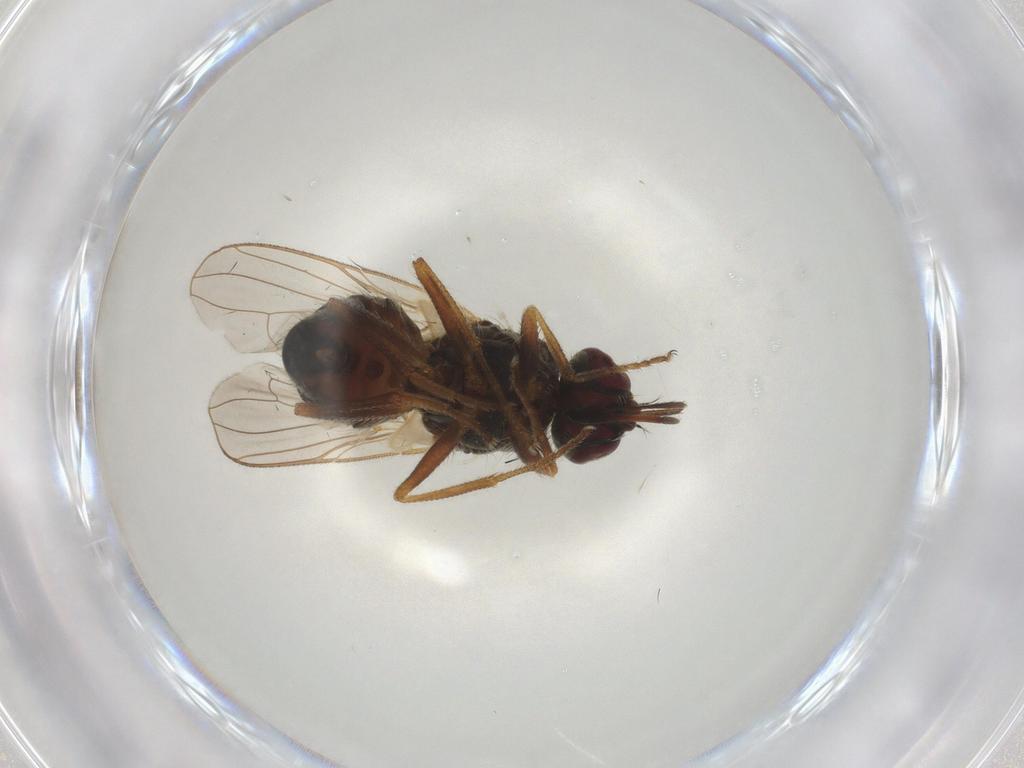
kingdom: Animalia
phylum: Arthropoda
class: Insecta
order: Diptera
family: Muscidae
